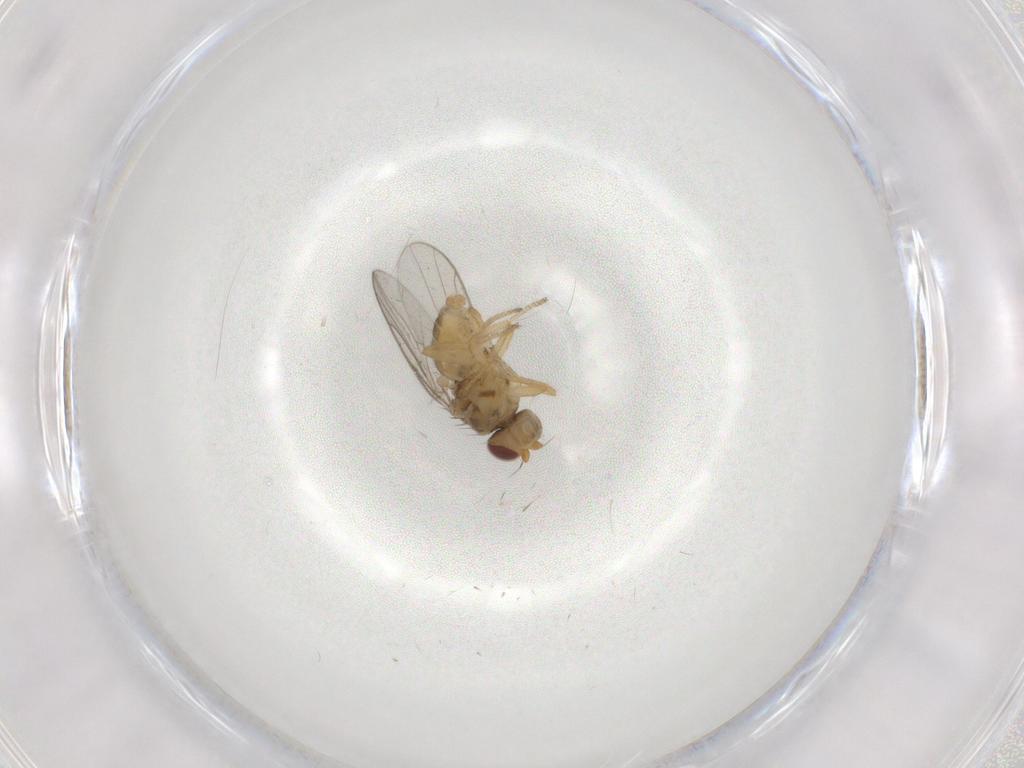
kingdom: Animalia
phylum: Arthropoda
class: Insecta
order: Diptera
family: Chloropidae
